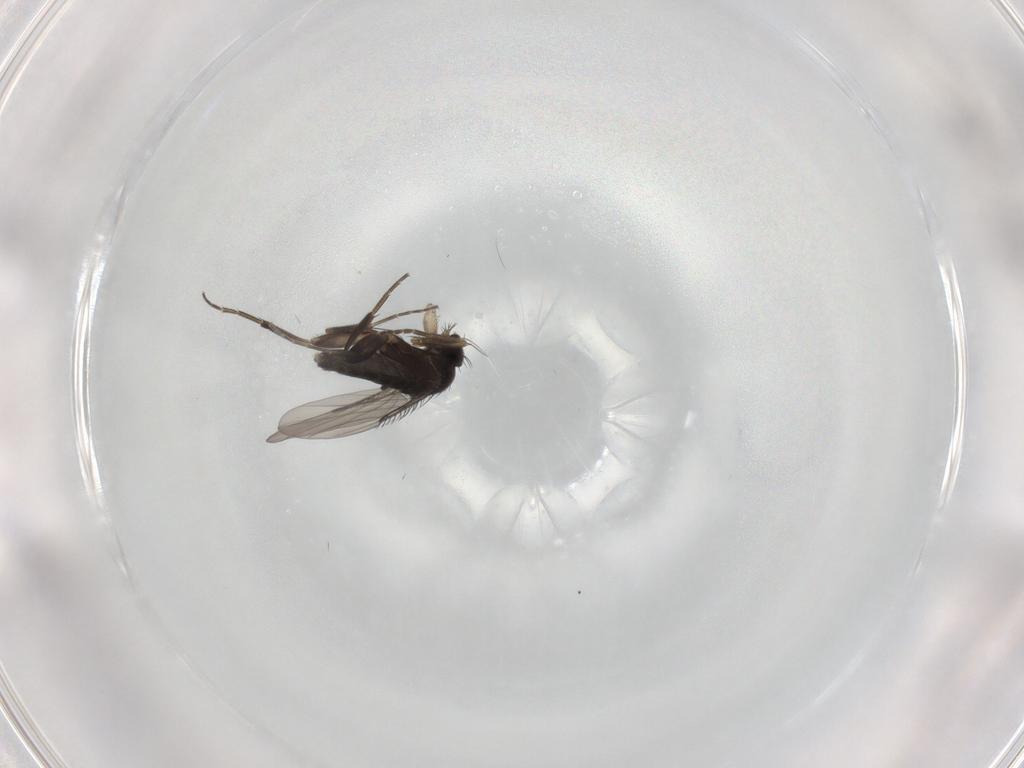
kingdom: Animalia
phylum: Arthropoda
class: Insecta
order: Diptera
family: Phoridae
